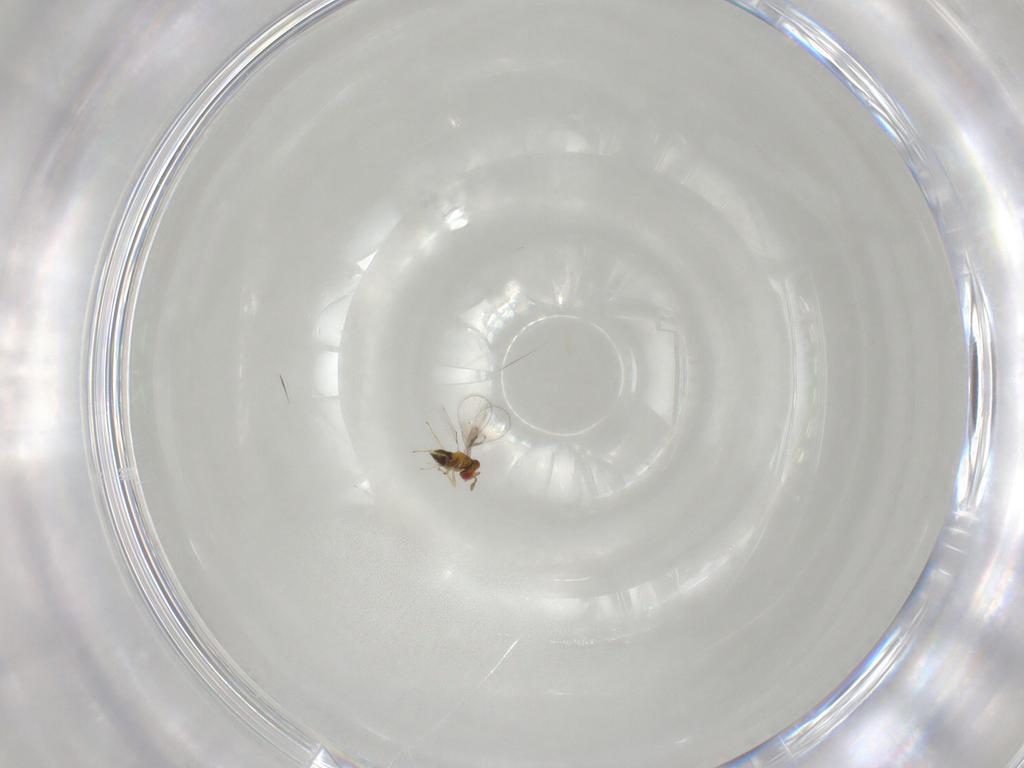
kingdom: Animalia
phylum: Arthropoda
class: Insecta
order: Hymenoptera
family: Trichogrammatidae
